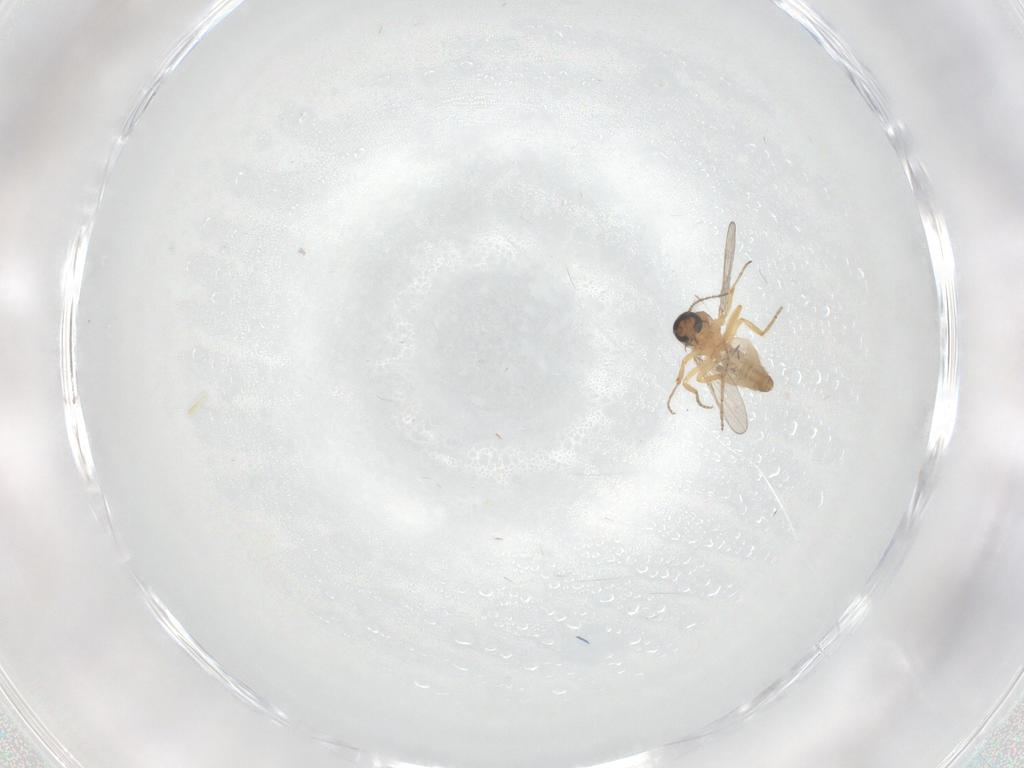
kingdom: Animalia
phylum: Arthropoda
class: Insecta
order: Diptera
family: Ceratopogonidae
